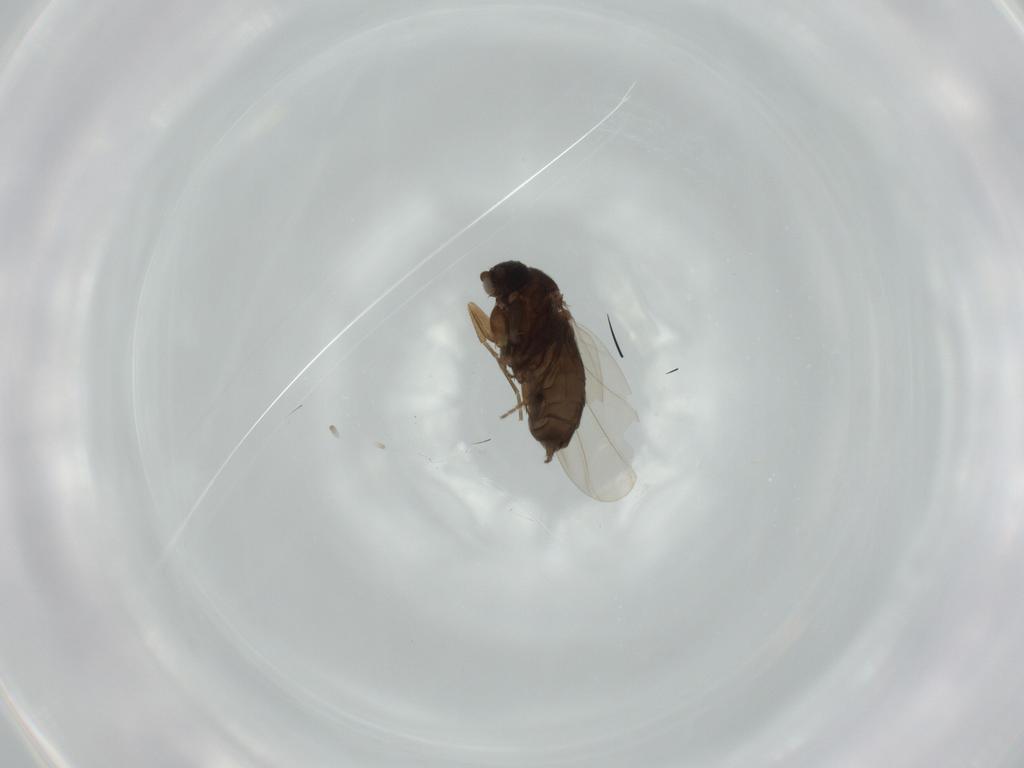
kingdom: Animalia
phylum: Arthropoda
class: Insecta
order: Diptera
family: Phoridae
